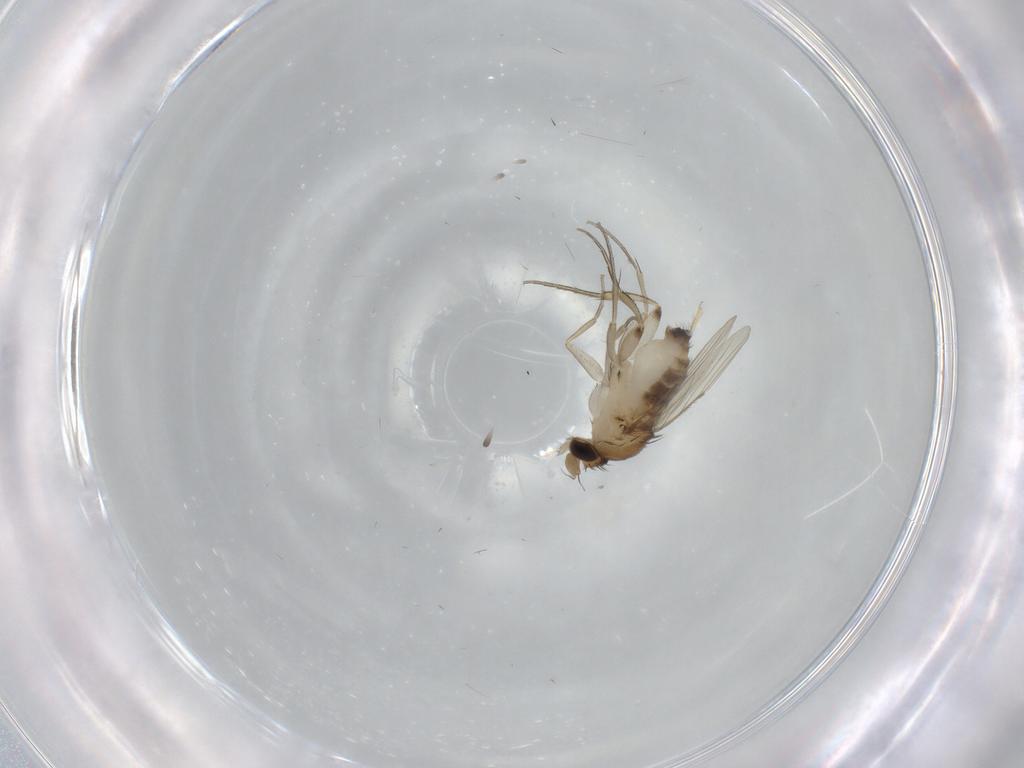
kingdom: Animalia
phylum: Arthropoda
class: Insecta
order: Diptera
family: Phoridae
